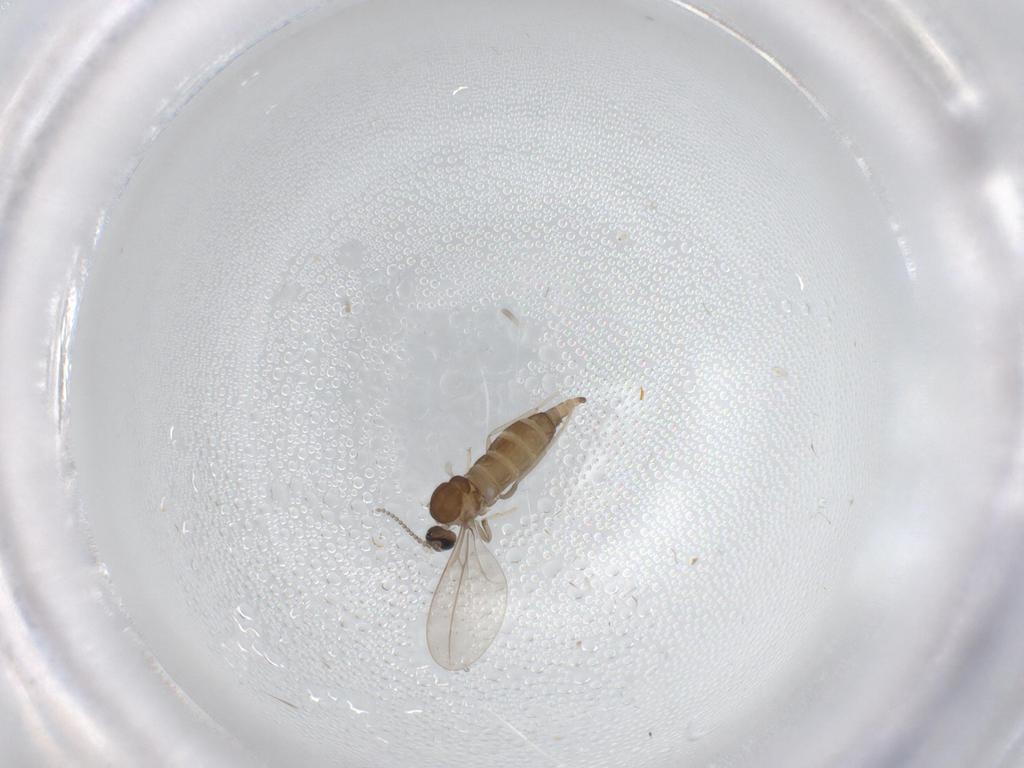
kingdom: Animalia
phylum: Arthropoda
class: Insecta
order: Diptera
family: Cecidomyiidae
